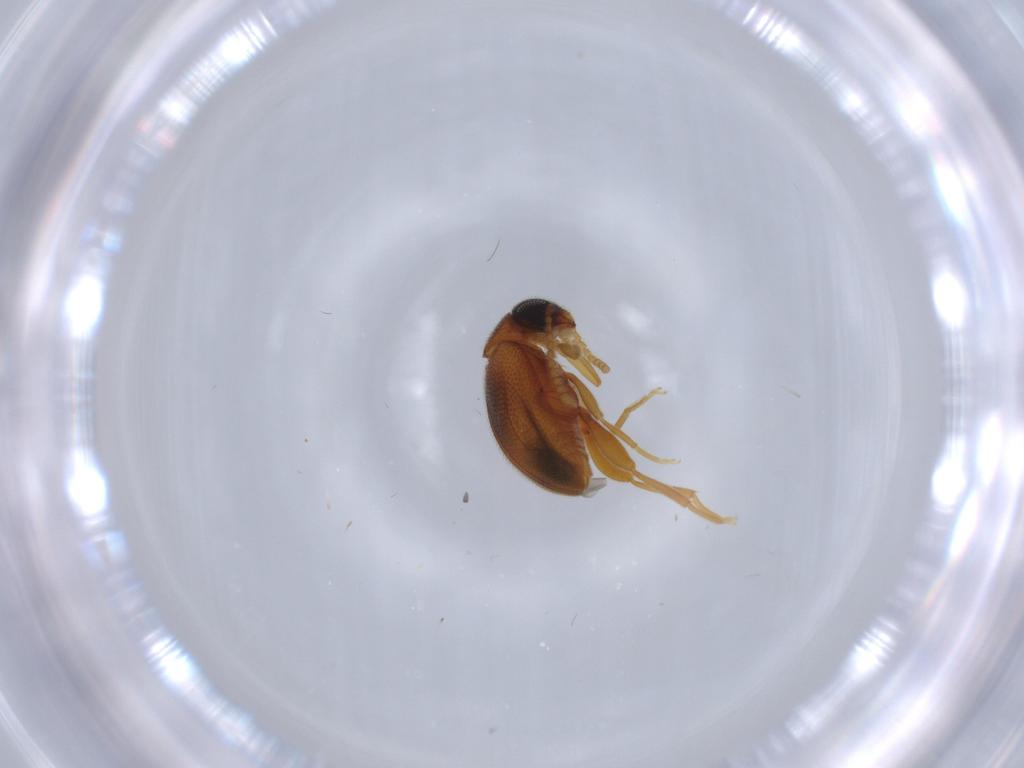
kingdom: Animalia
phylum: Arthropoda
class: Insecta
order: Coleoptera
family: Aderidae
